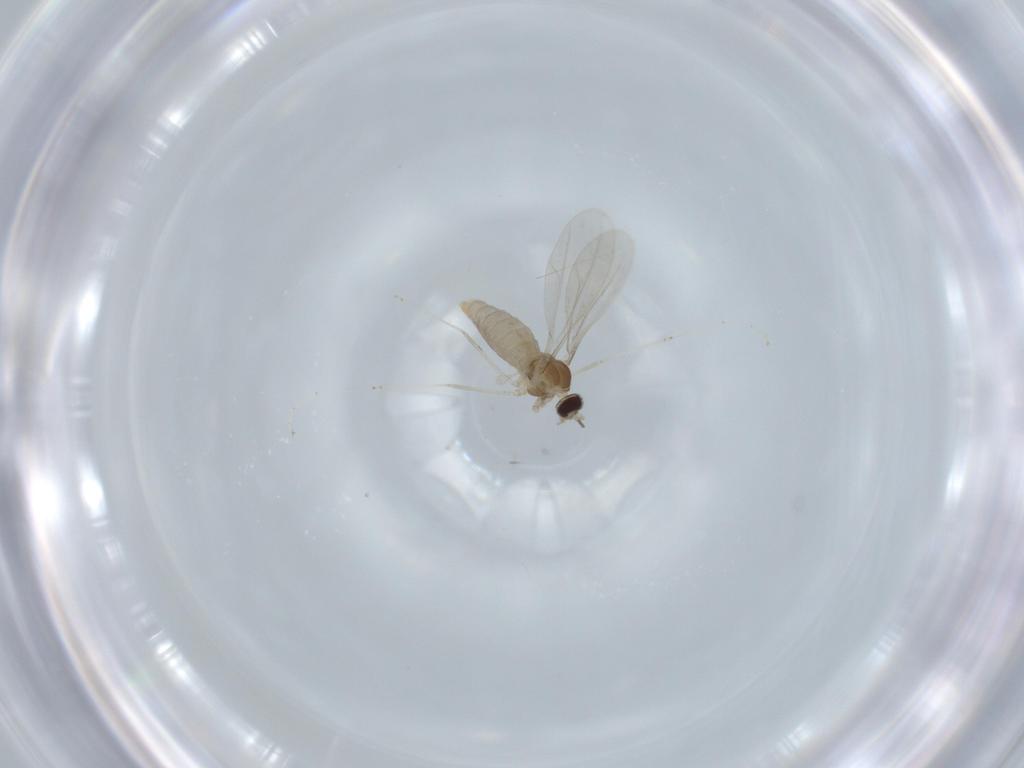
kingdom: Animalia
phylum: Arthropoda
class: Insecta
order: Diptera
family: Cecidomyiidae
